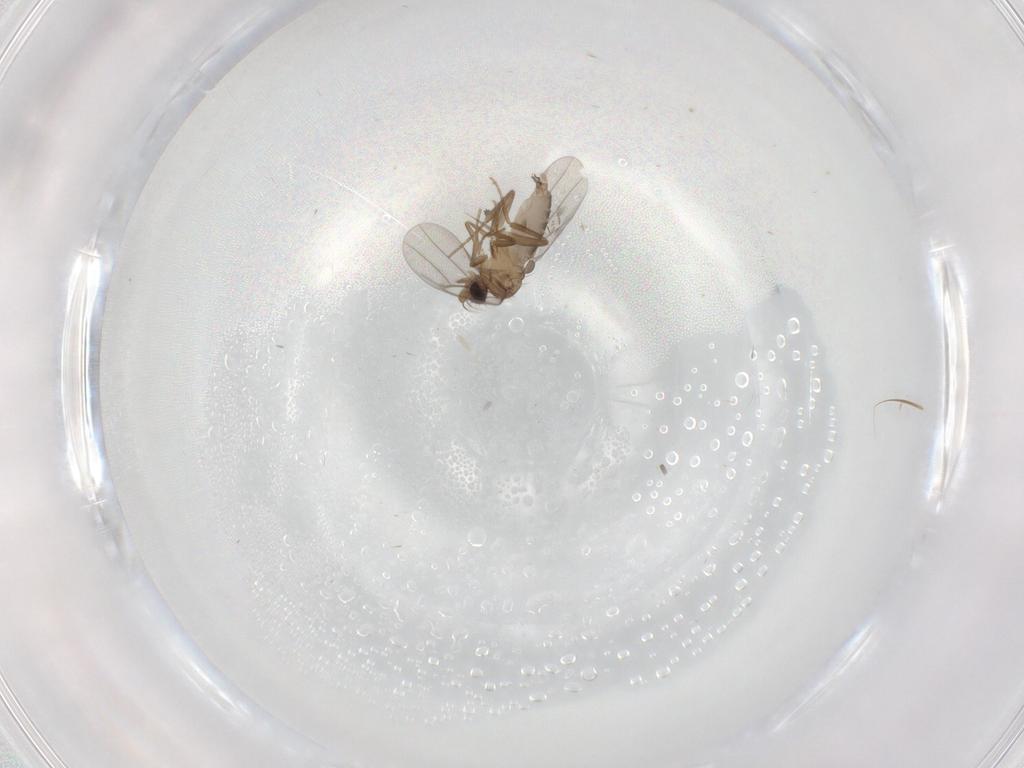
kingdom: Animalia
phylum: Arthropoda
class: Insecta
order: Diptera
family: Phoridae
